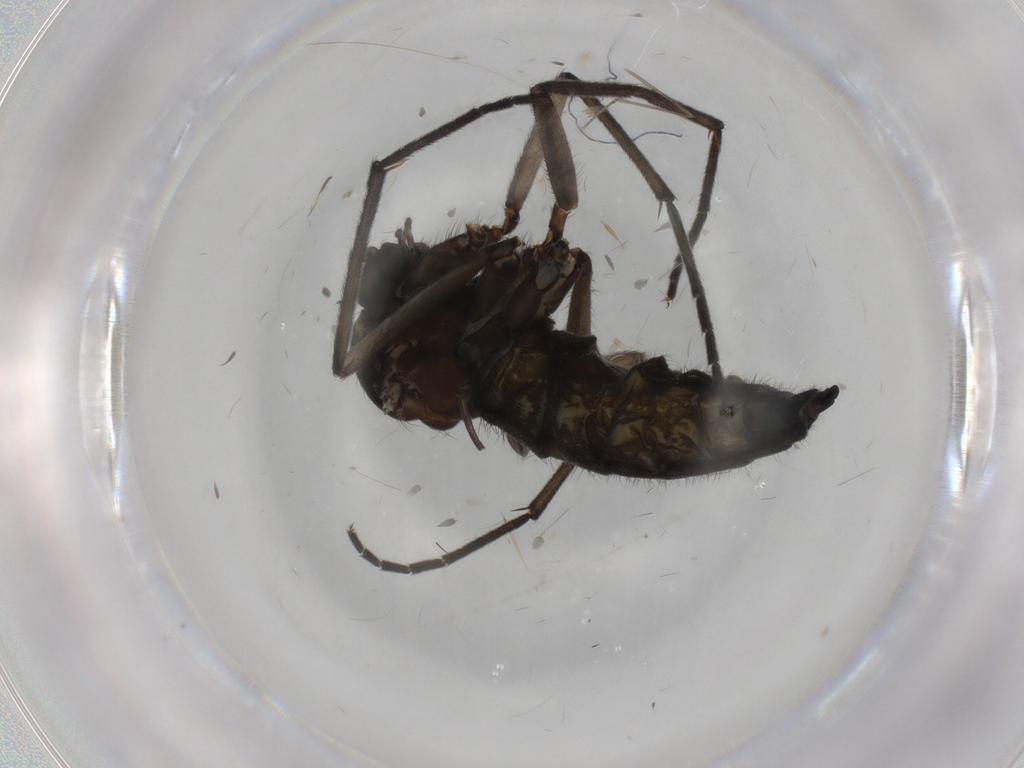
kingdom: Animalia
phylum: Arthropoda
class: Insecta
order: Diptera
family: Sciaridae
